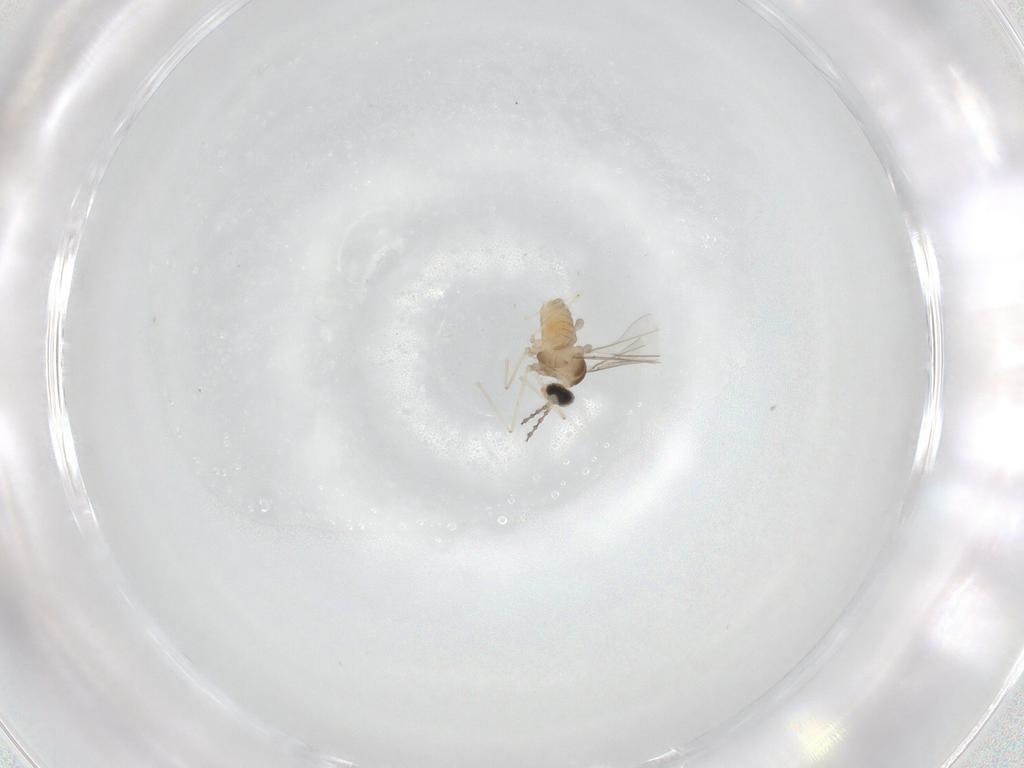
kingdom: Animalia
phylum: Arthropoda
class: Insecta
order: Diptera
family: Cecidomyiidae
